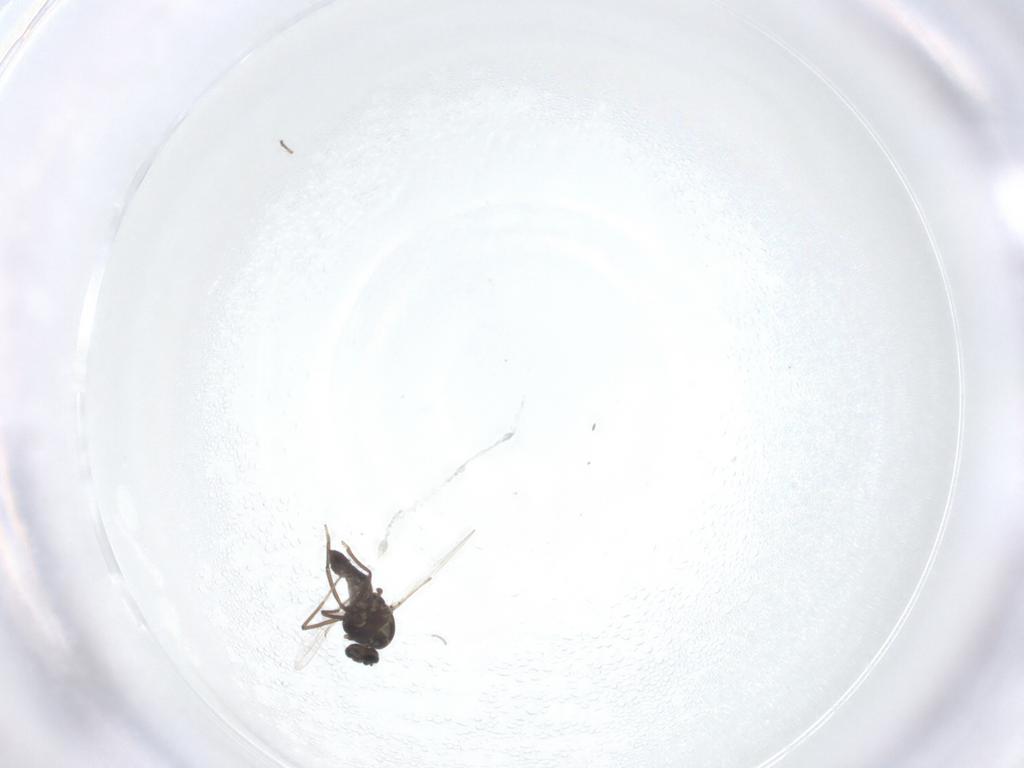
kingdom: Animalia
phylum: Arthropoda
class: Insecta
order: Diptera
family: Ceratopogonidae
